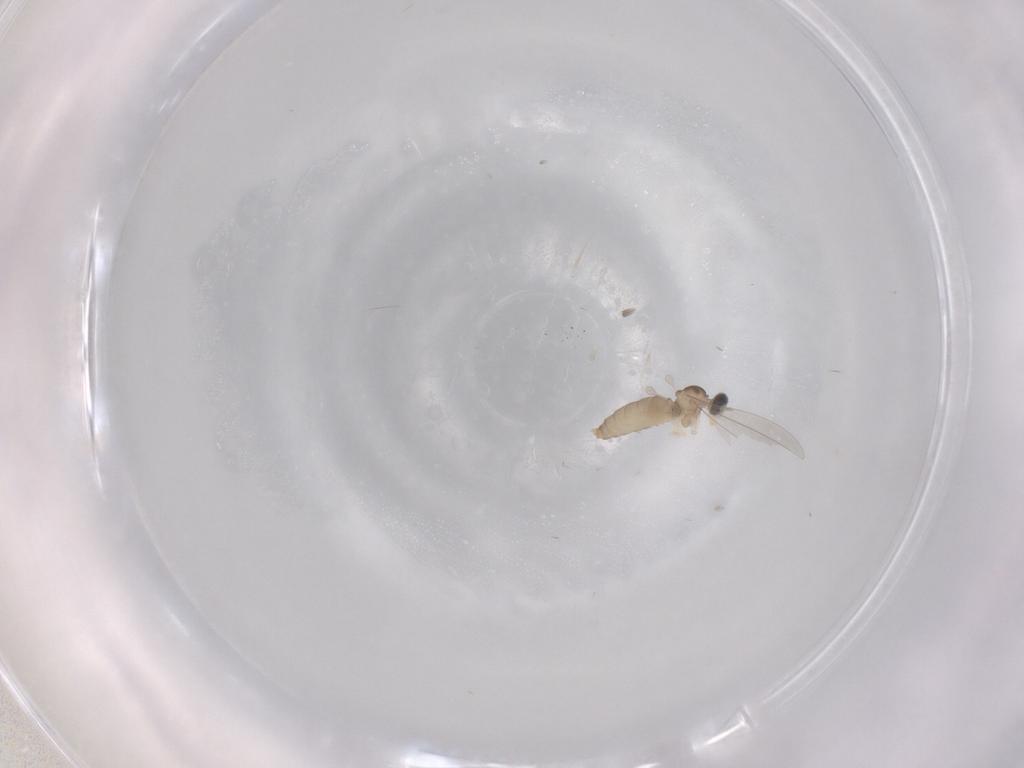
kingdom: Animalia
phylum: Arthropoda
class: Insecta
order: Diptera
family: Cecidomyiidae
